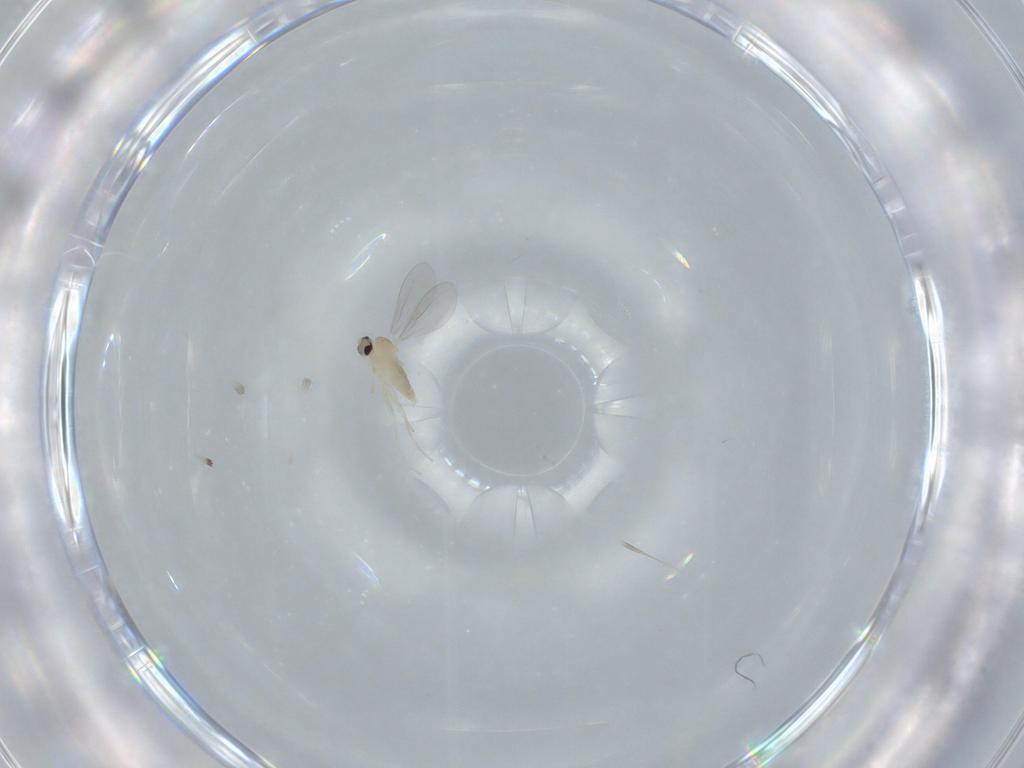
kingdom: Animalia
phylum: Arthropoda
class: Insecta
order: Diptera
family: Cecidomyiidae
